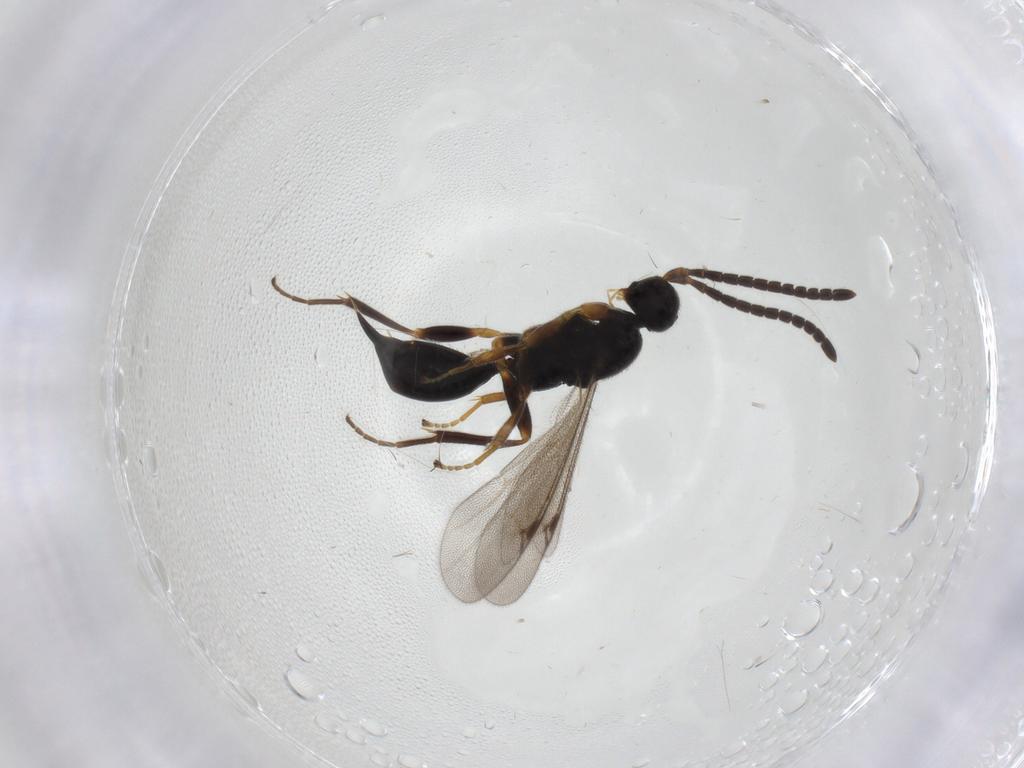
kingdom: Animalia
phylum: Arthropoda
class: Insecta
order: Hymenoptera
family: Proctotrupidae
